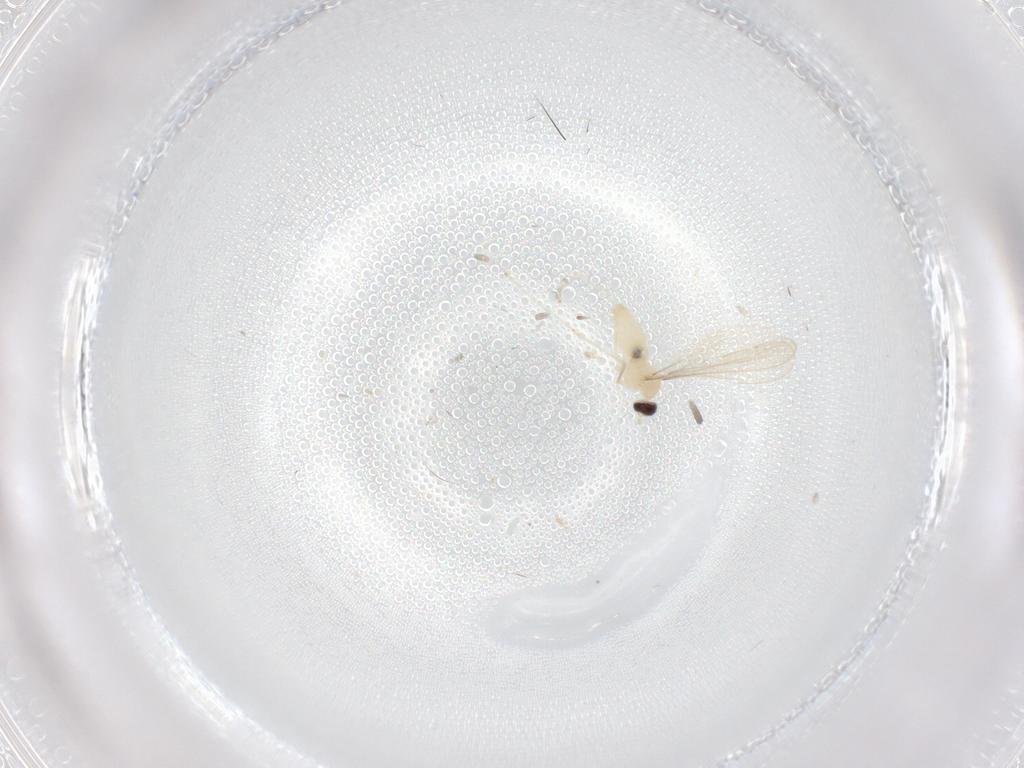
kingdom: Animalia
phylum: Arthropoda
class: Insecta
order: Diptera
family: Cecidomyiidae
